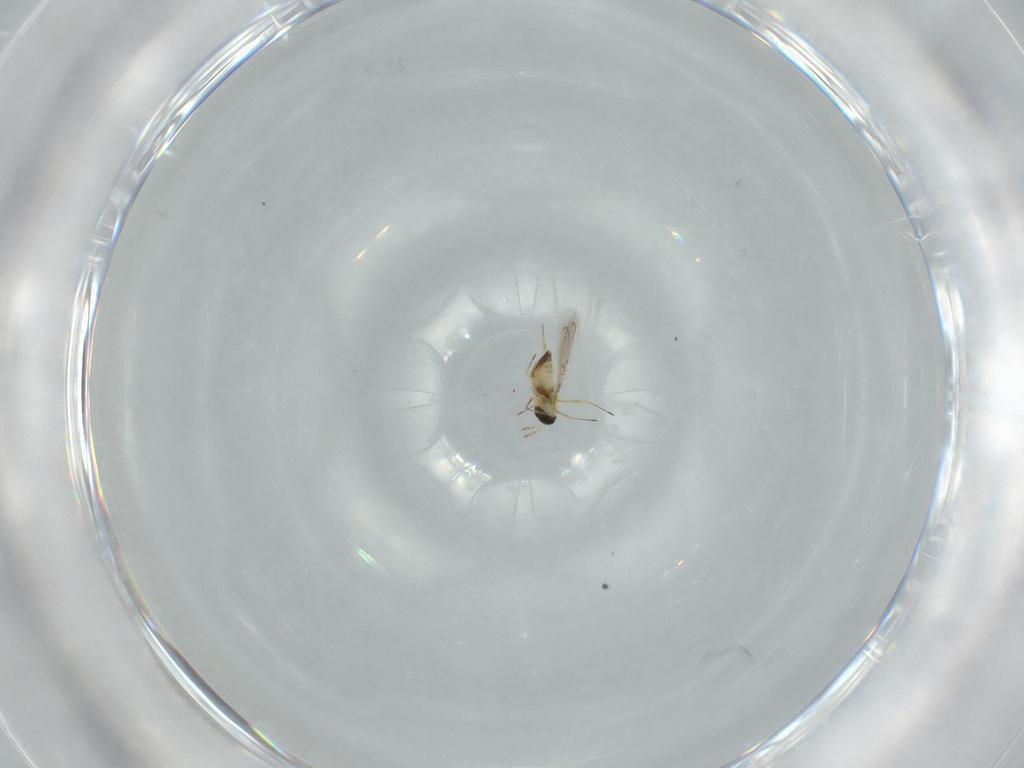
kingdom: Animalia
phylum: Arthropoda
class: Insecta
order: Hymenoptera
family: Trichogrammatidae
